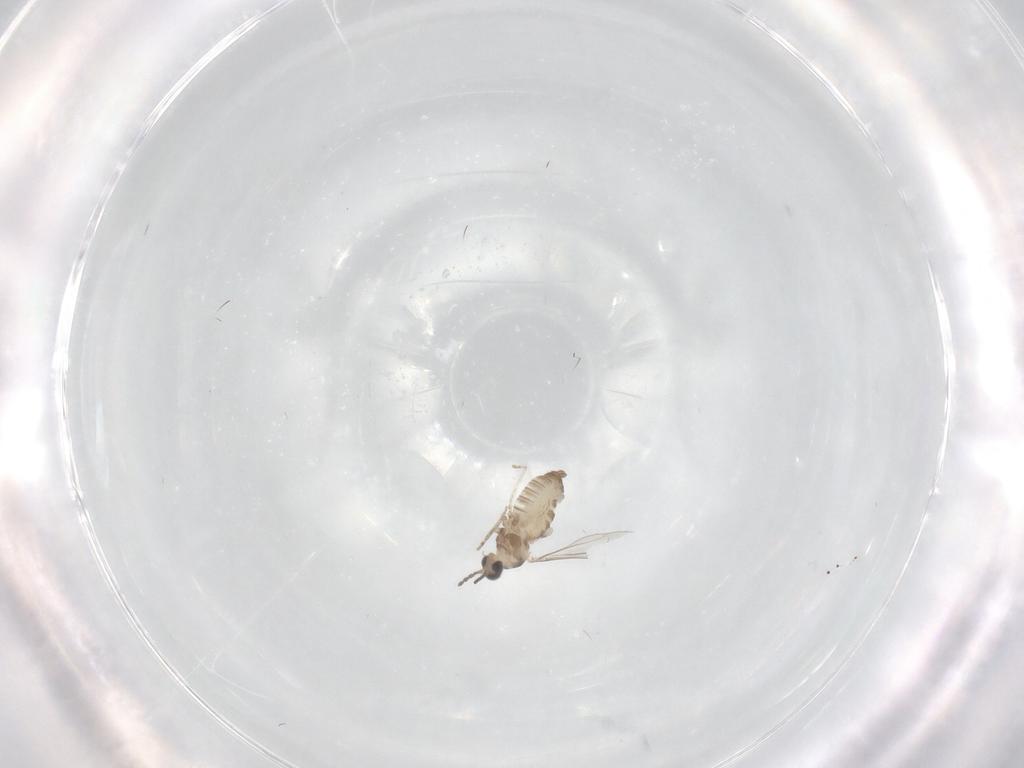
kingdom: Animalia
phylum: Arthropoda
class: Insecta
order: Diptera
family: Cecidomyiidae
